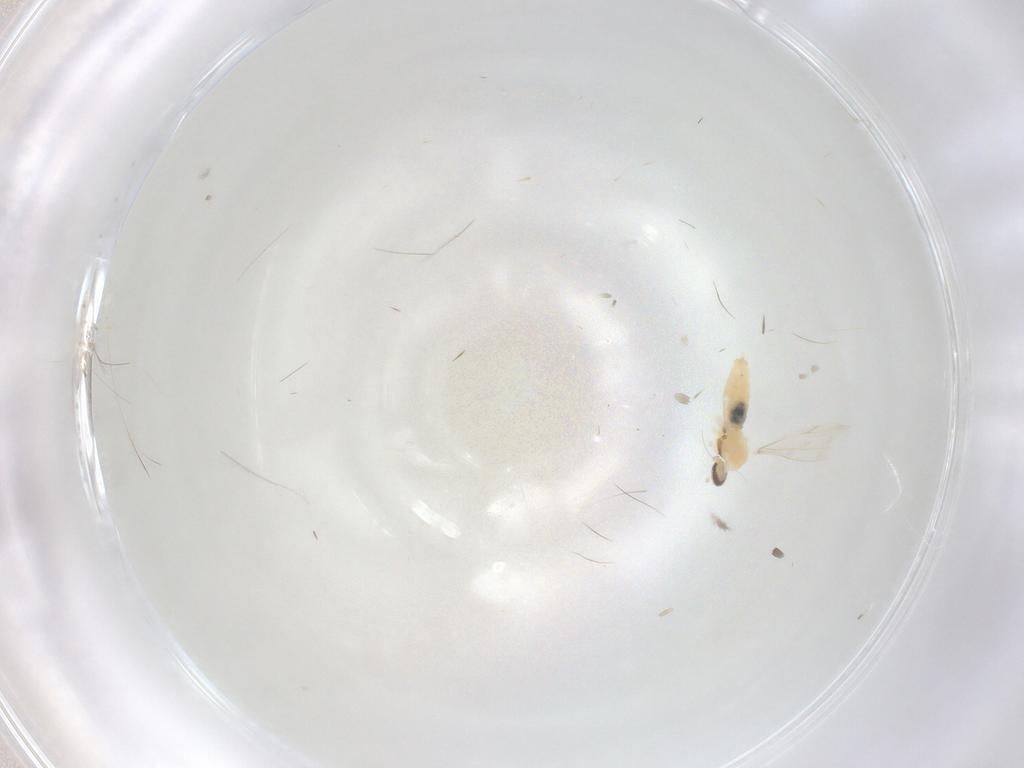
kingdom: Animalia
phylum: Arthropoda
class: Insecta
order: Diptera
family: Cecidomyiidae
